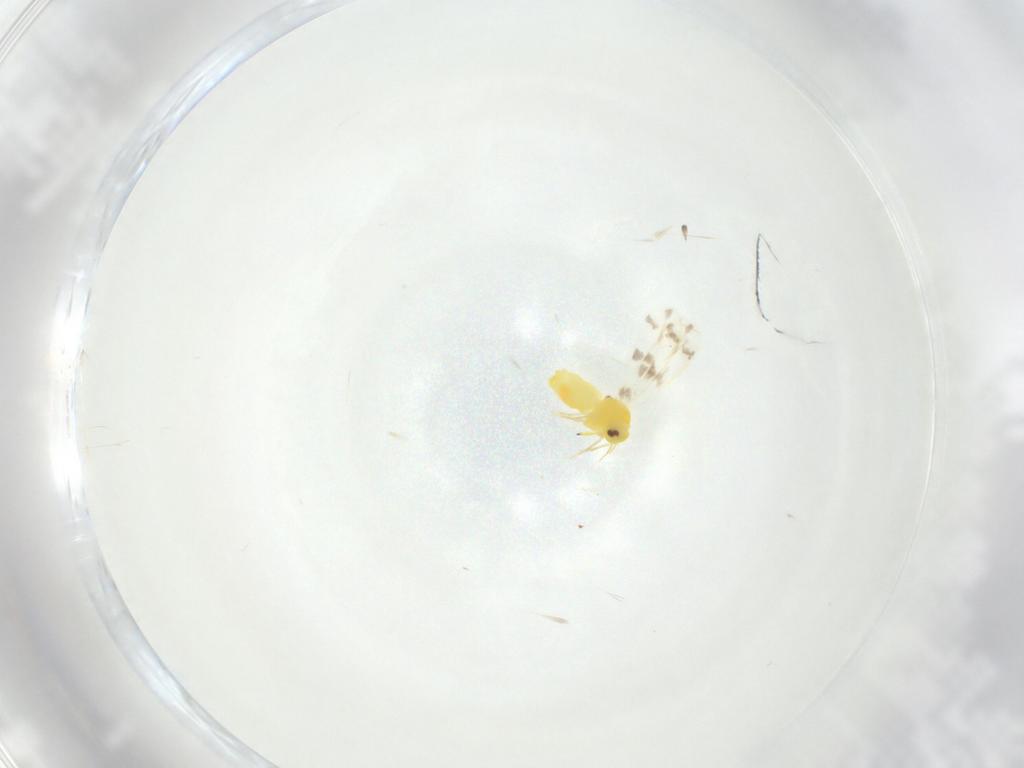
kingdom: Animalia
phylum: Arthropoda
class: Insecta
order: Hemiptera
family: Aleyrodidae
